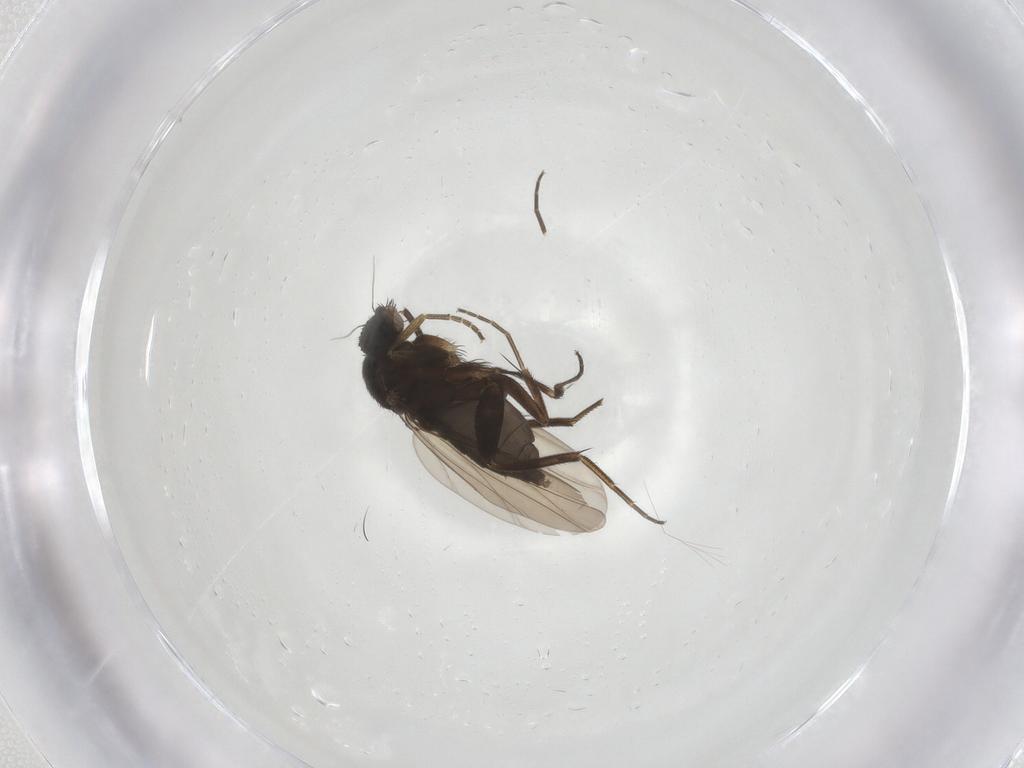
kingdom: Animalia
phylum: Arthropoda
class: Insecta
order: Diptera
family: Phoridae
